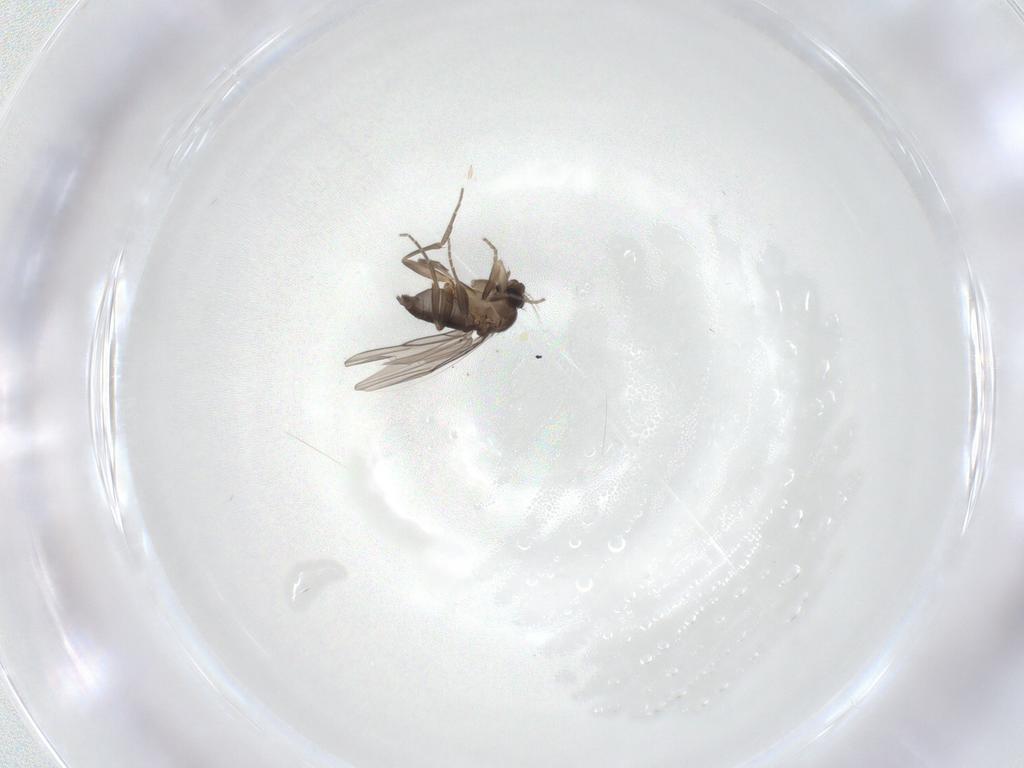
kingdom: Animalia
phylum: Arthropoda
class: Insecta
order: Diptera
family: Phoridae
